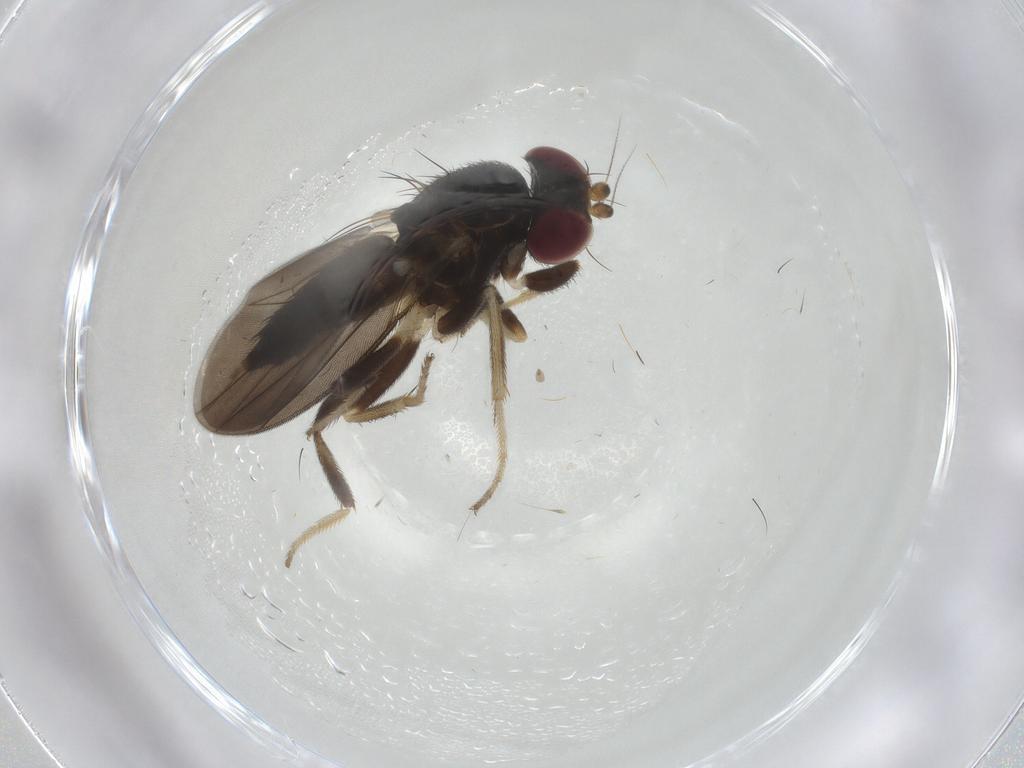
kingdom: Animalia
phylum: Arthropoda
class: Insecta
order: Diptera
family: Clusiidae
